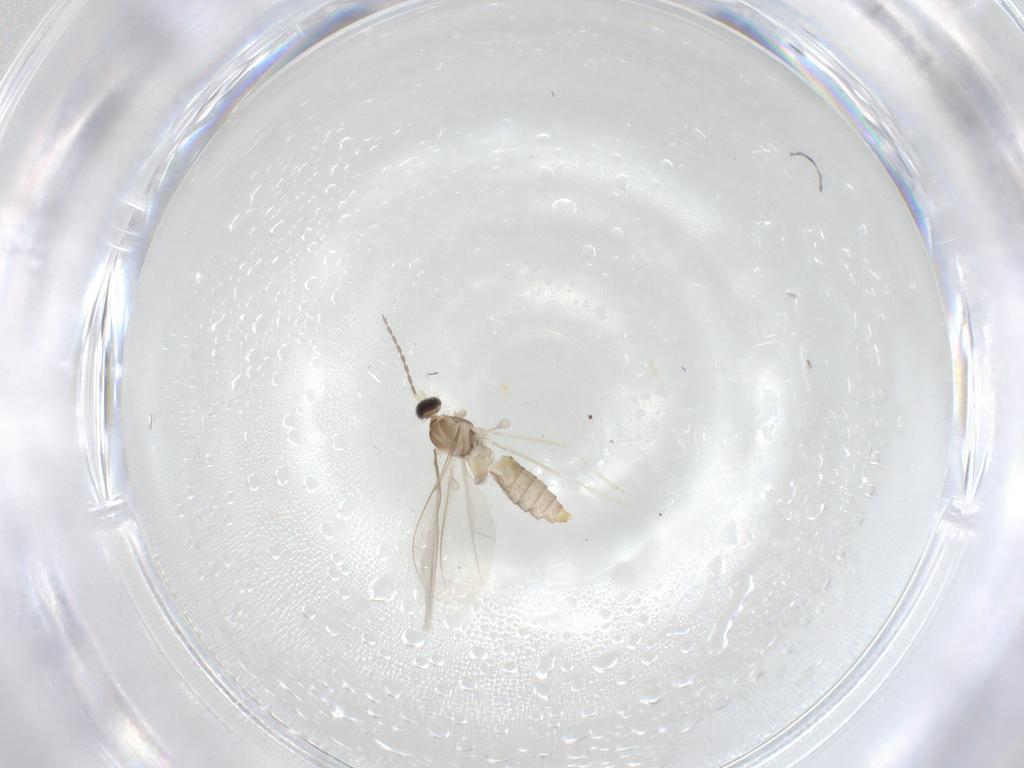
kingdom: Animalia
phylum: Arthropoda
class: Insecta
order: Diptera
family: Cecidomyiidae
